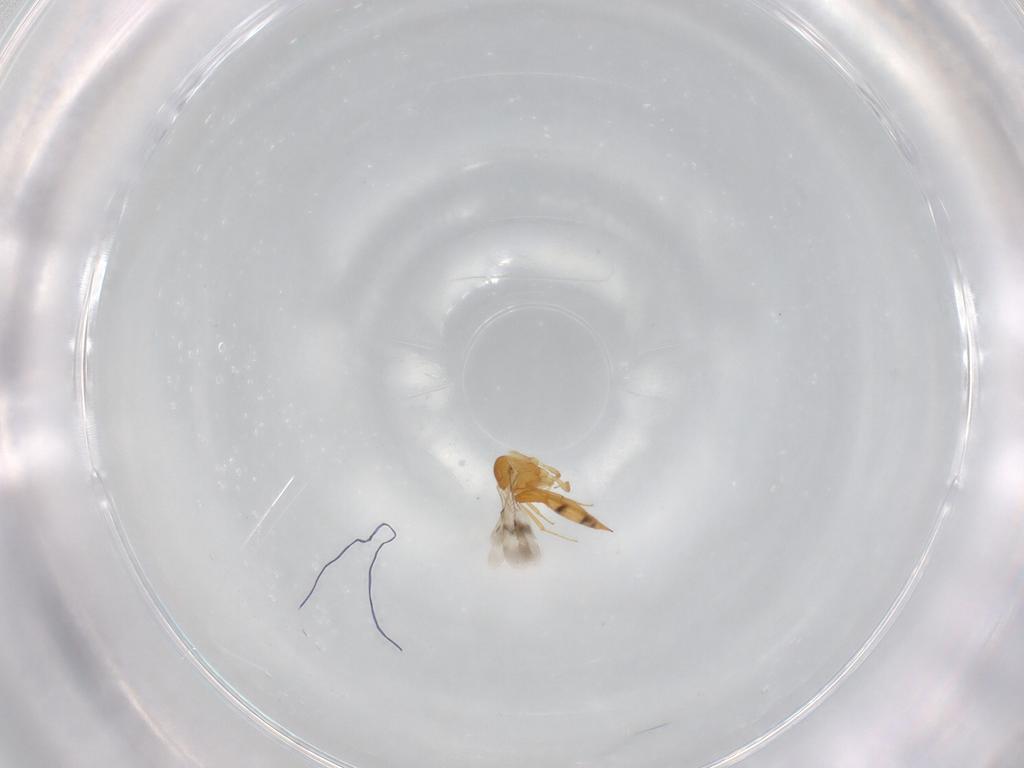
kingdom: Animalia
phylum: Arthropoda
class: Insecta
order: Hymenoptera
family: Scelionidae
